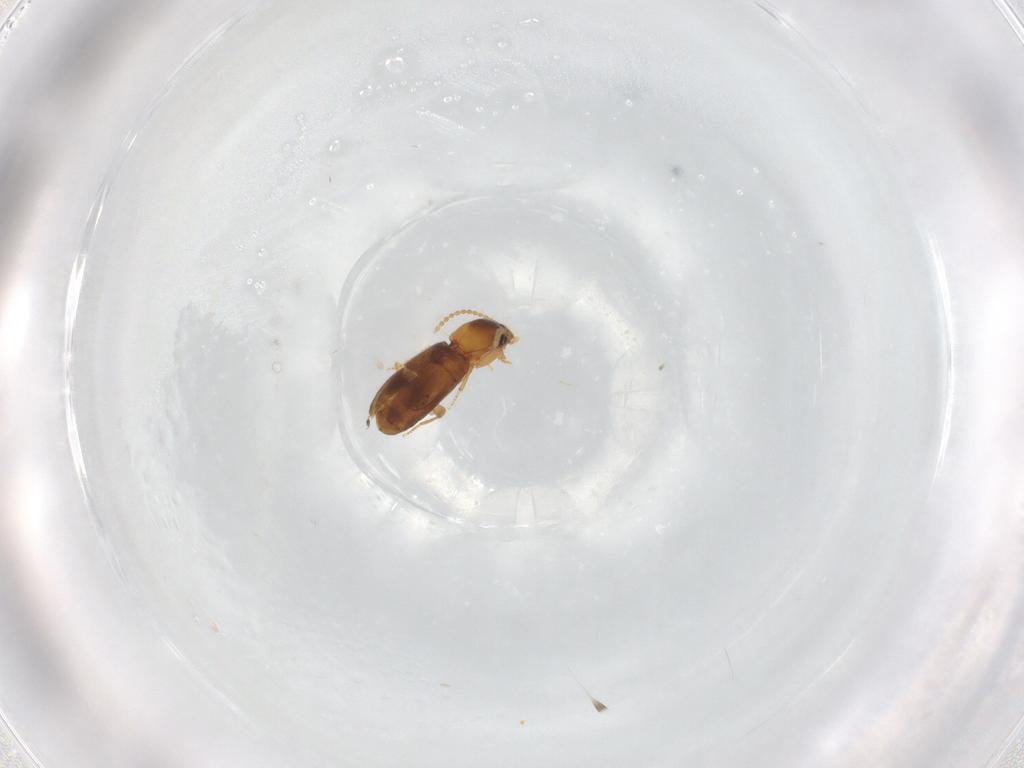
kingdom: Animalia
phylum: Arthropoda
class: Insecta
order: Coleoptera
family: Carabidae
